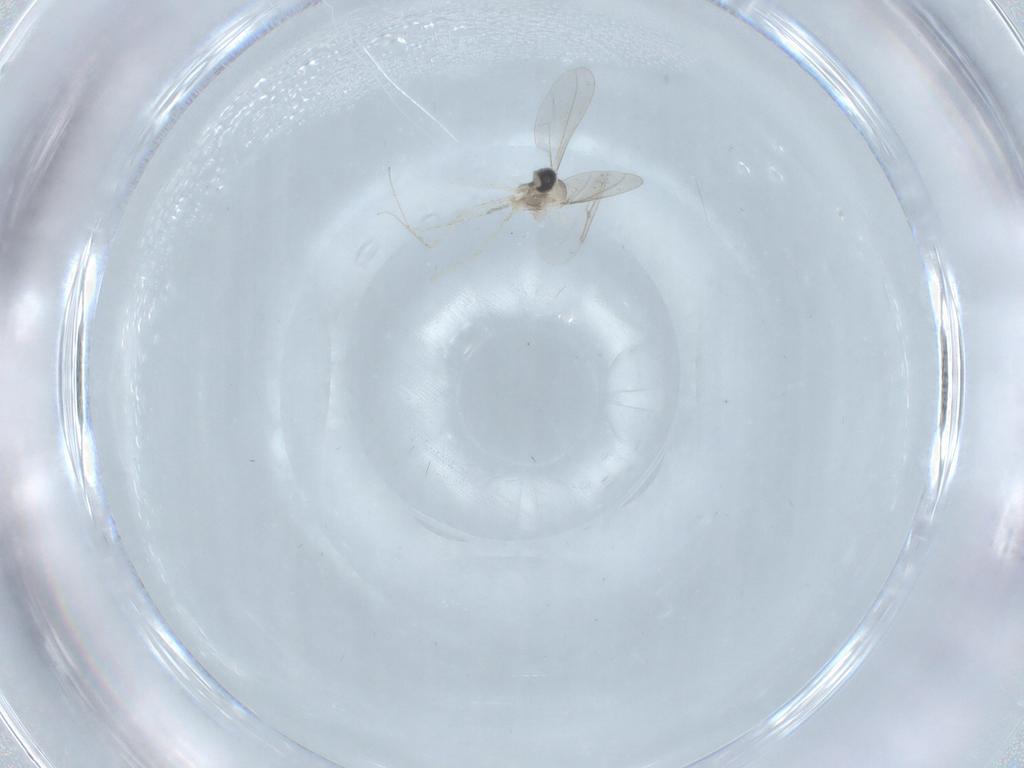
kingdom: Animalia
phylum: Arthropoda
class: Insecta
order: Diptera
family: Cecidomyiidae
